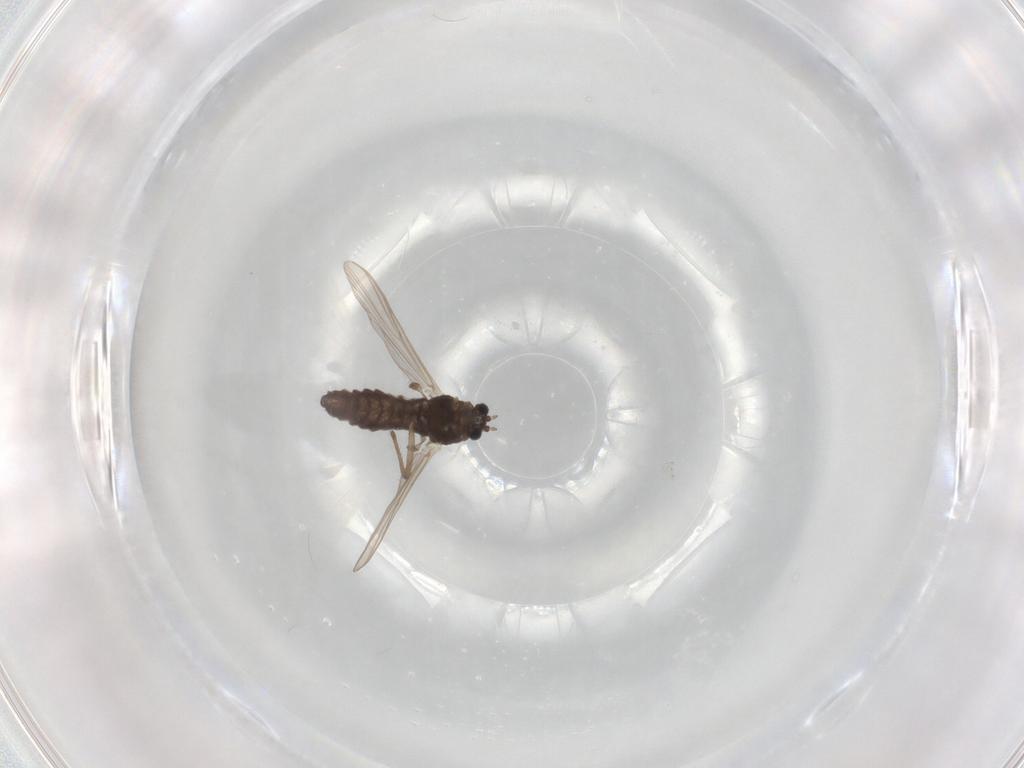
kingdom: Animalia
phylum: Arthropoda
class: Insecta
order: Diptera
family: Chironomidae
